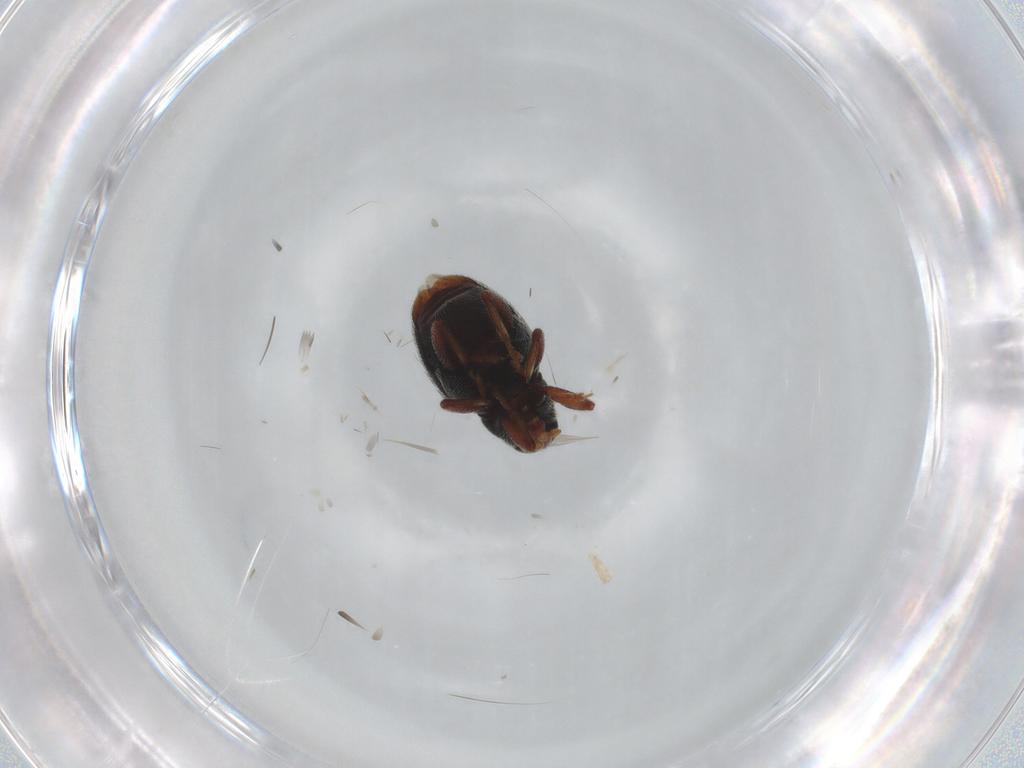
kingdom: Animalia
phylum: Arthropoda
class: Insecta
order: Coleoptera
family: Curculionidae
